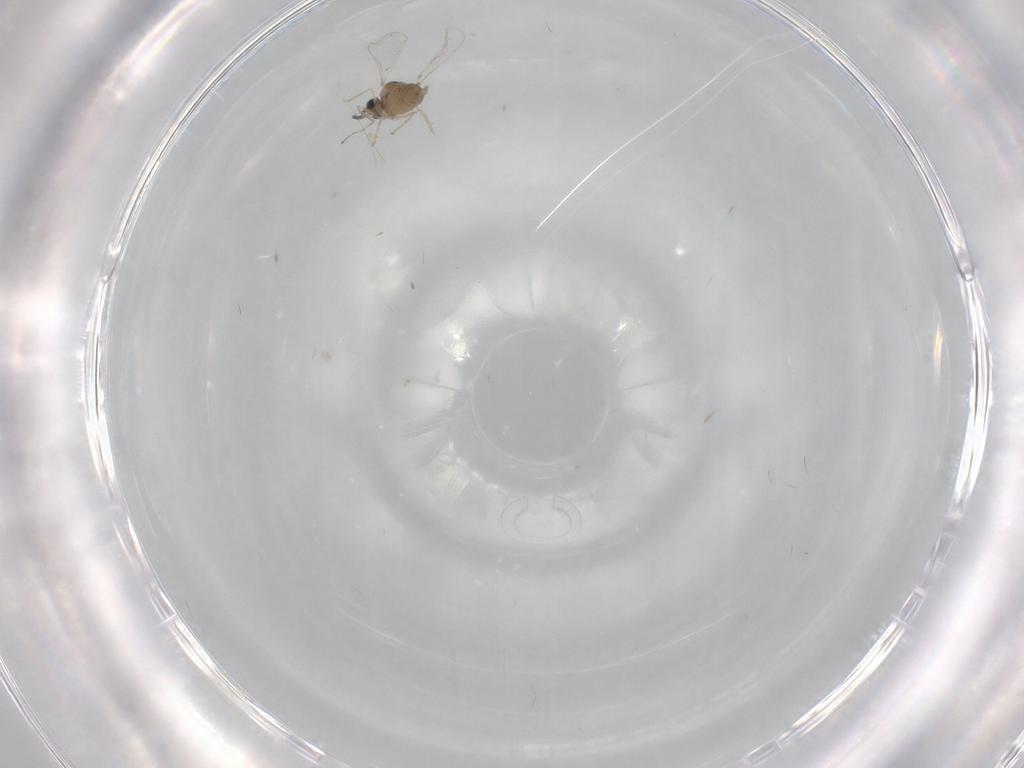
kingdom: Animalia
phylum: Arthropoda
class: Insecta
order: Diptera
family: Cecidomyiidae
